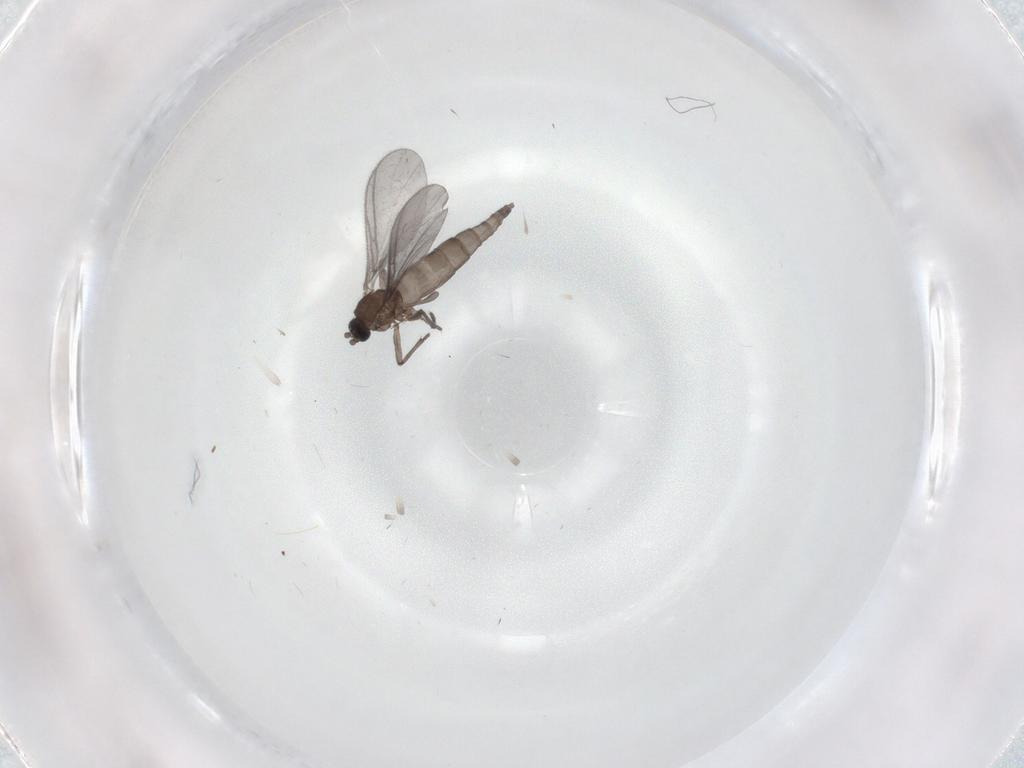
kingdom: Animalia
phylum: Arthropoda
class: Insecta
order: Diptera
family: Sciaridae
